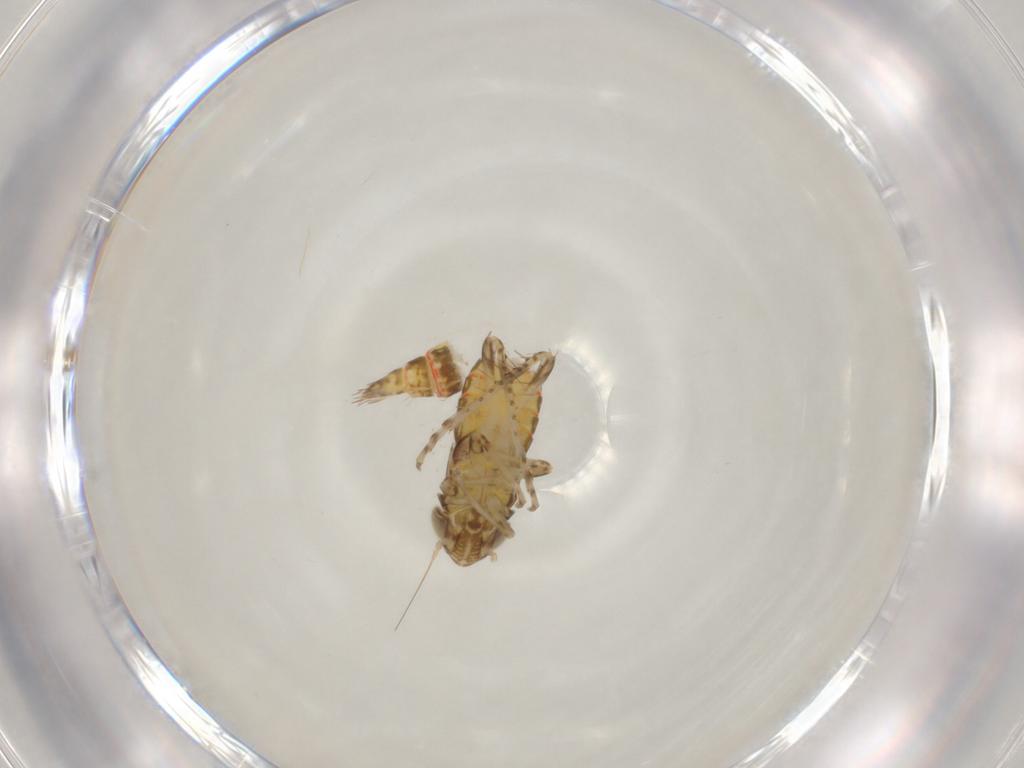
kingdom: Animalia
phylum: Arthropoda
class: Insecta
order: Hemiptera
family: Cicadellidae
